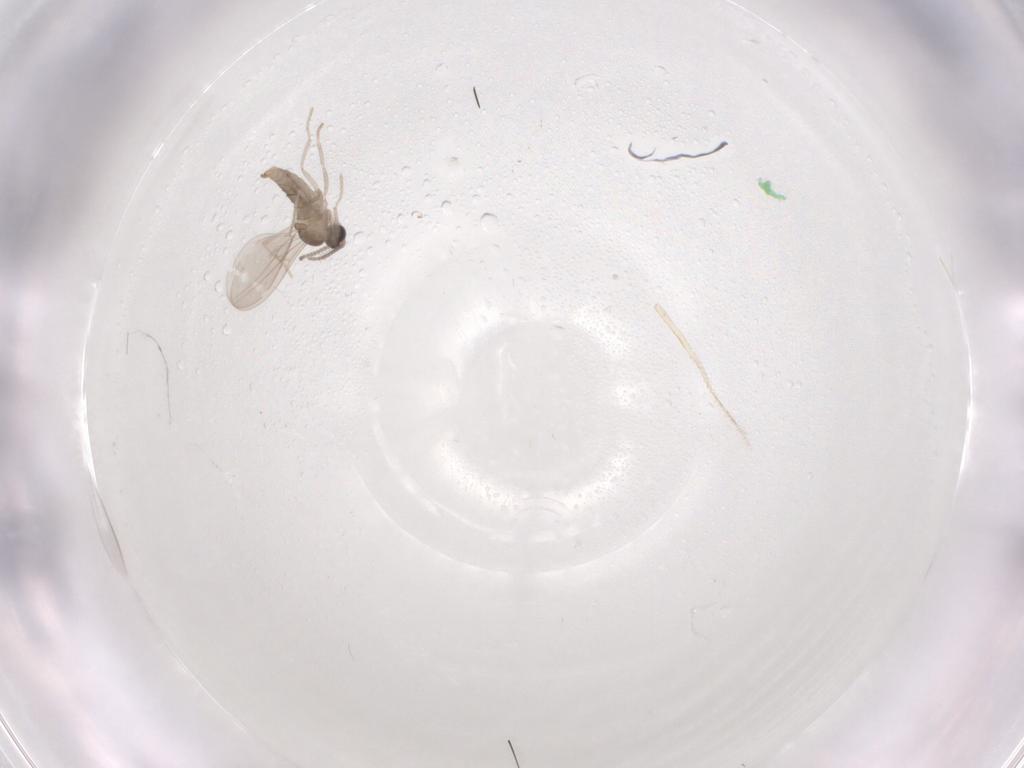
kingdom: Animalia
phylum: Arthropoda
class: Insecta
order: Diptera
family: Cecidomyiidae
